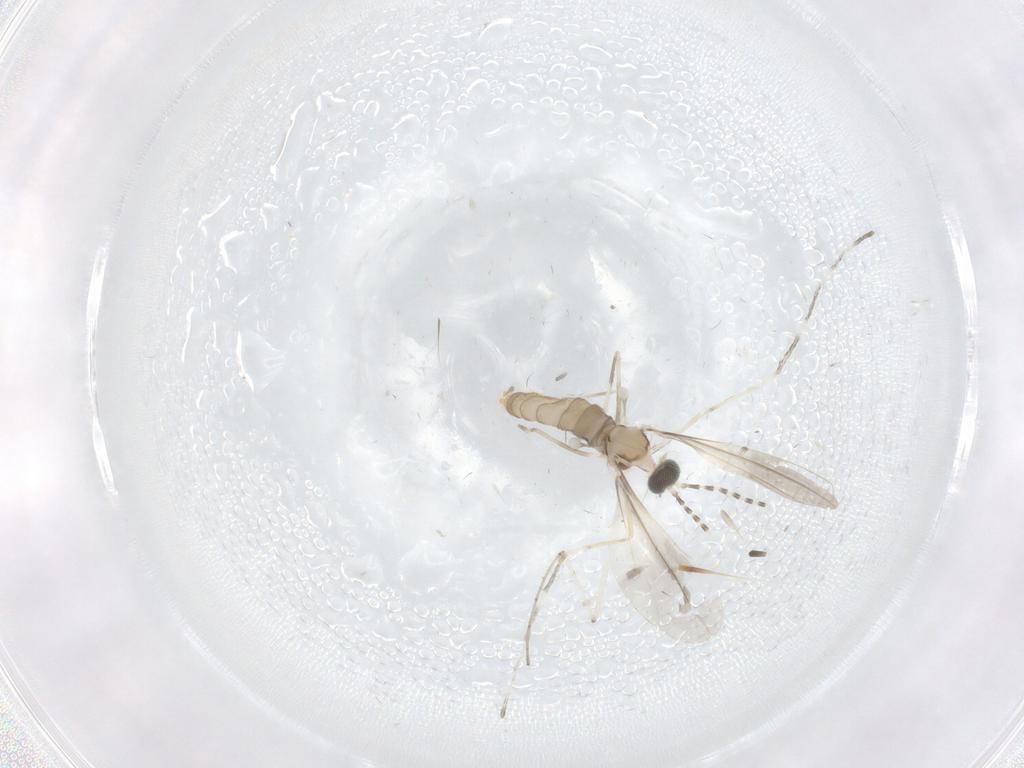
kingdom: Animalia
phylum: Arthropoda
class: Insecta
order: Diptera
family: Cecidomyiidae
